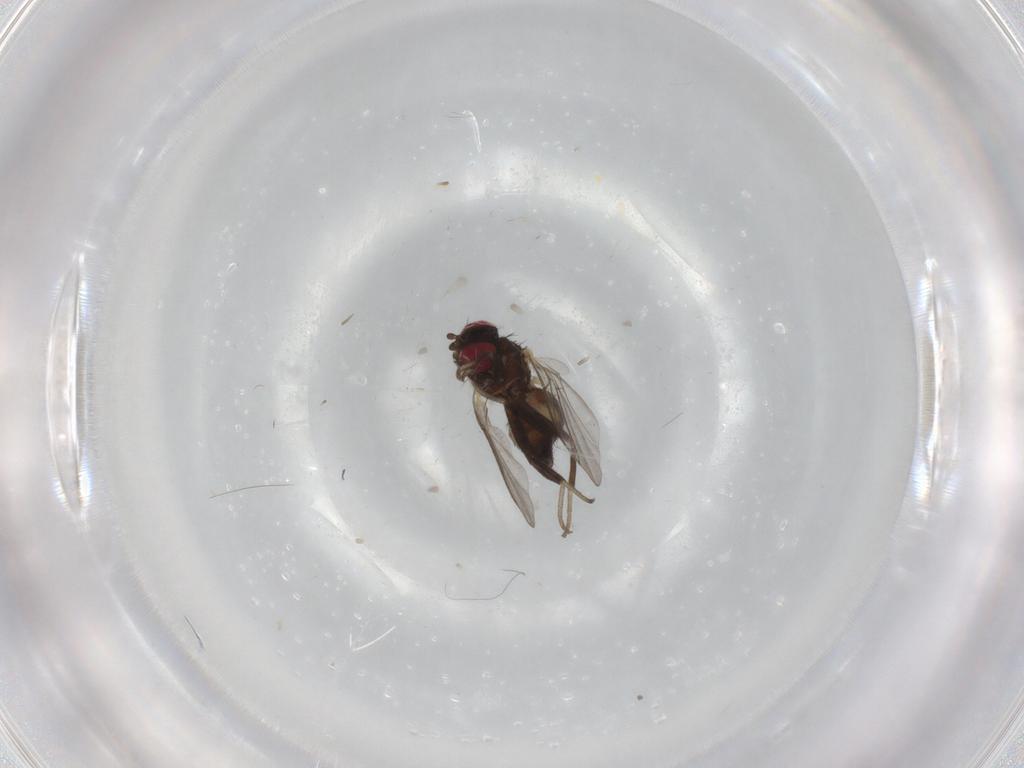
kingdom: Animalia
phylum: Arthropoda
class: Insecta
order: Diptera
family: Agromyzidae
